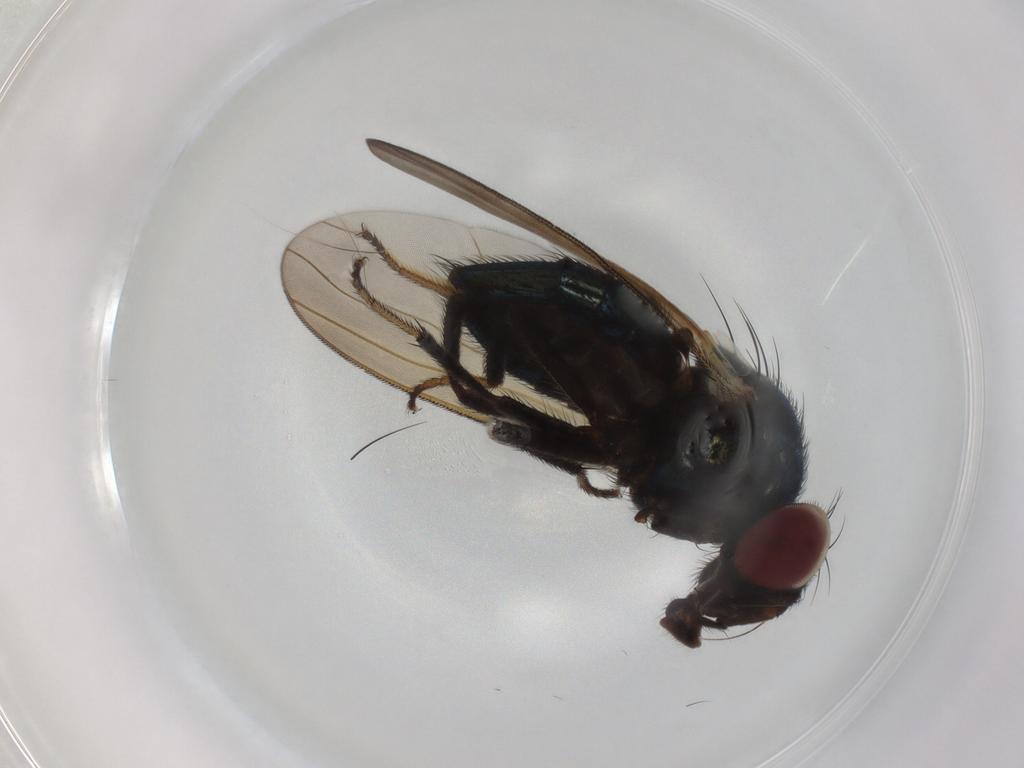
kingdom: Animalia
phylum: Arthropoda
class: Insecta
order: Diptera
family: Lonchaeidae
